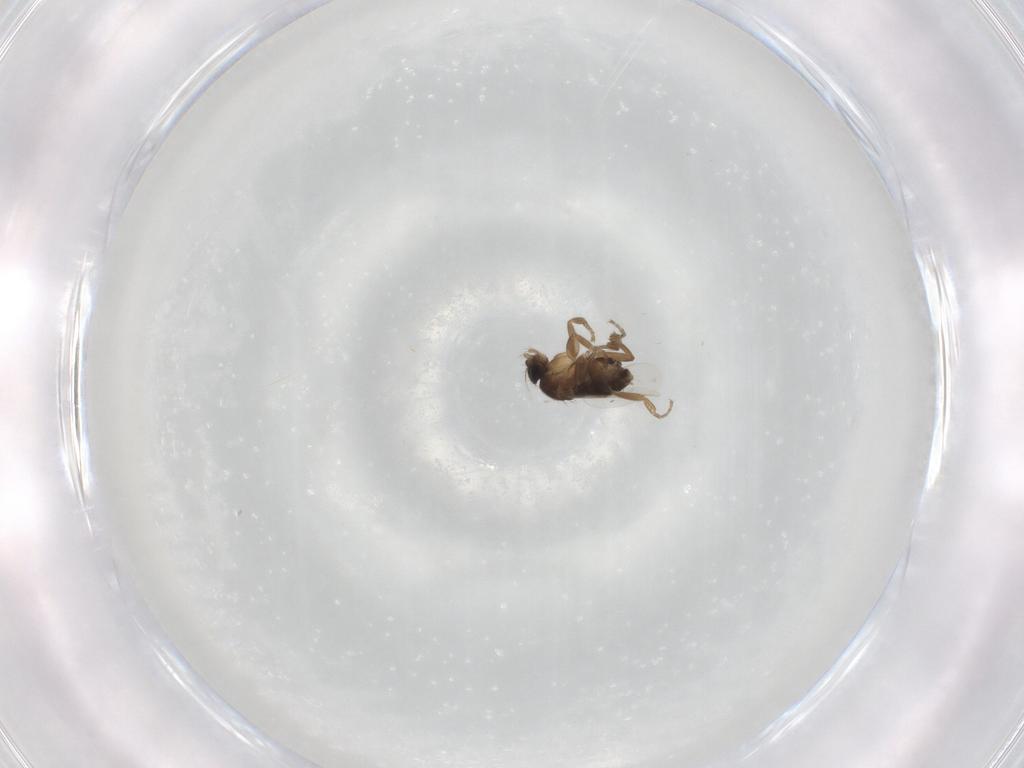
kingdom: Animalia
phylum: Arthropoda
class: Insecta
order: Diptera
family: Phoridae
